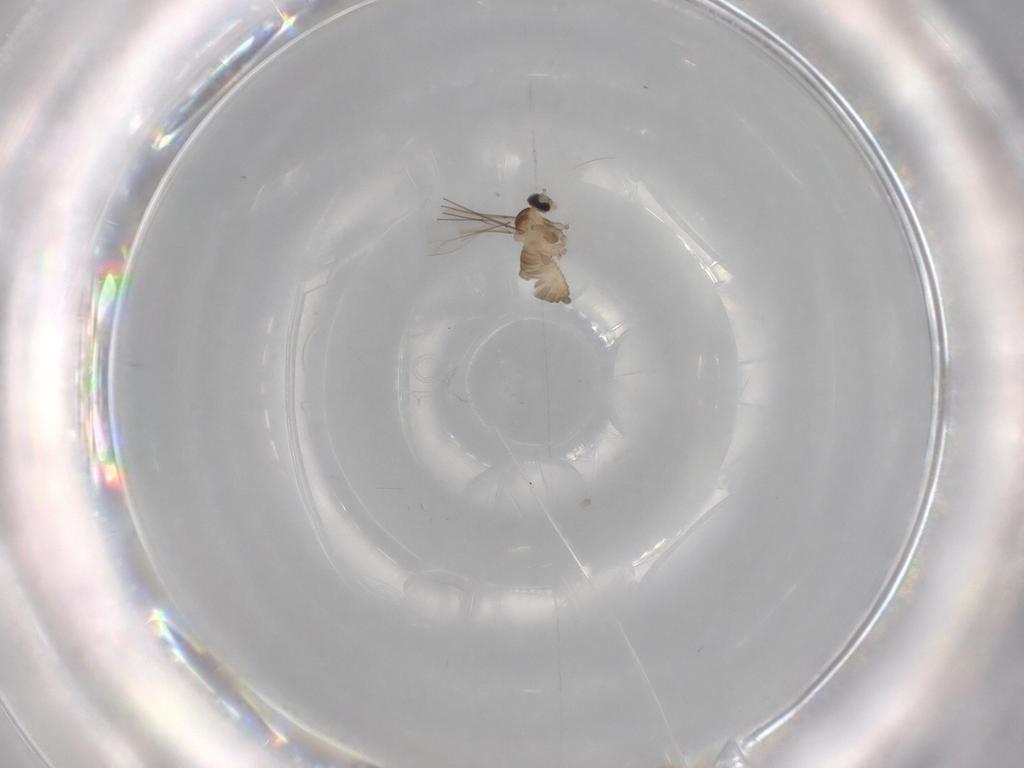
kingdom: Animalia
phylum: Arthropoda
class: Insecta
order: Diptera
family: Cecidomyiidae
